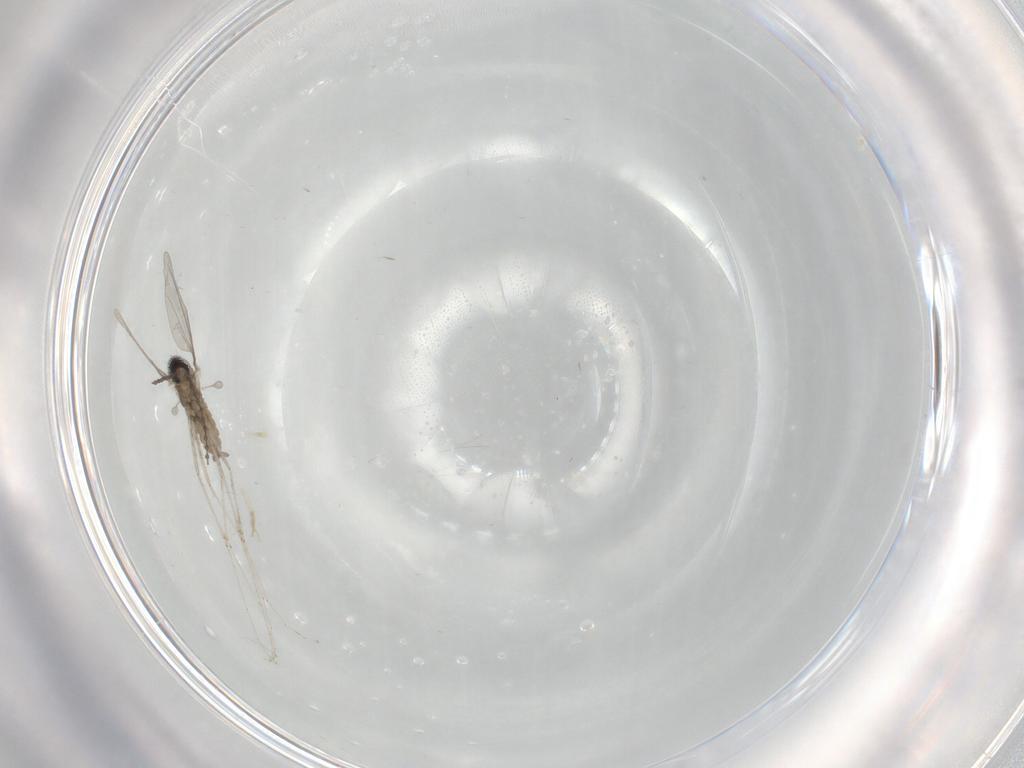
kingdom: Animalia
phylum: Arthropoda
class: Insecta
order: Diptera
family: Cecidomyiidae
